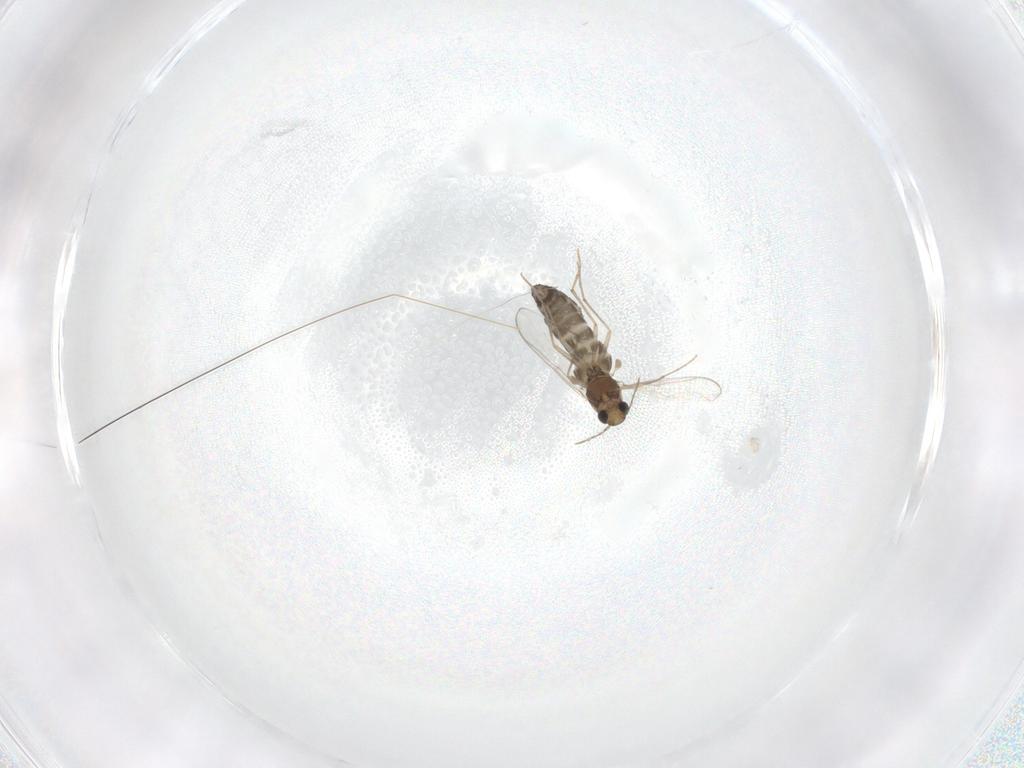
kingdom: Animalia
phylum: Arthropoda
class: Insecta
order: Diptera
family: Chironomidae
